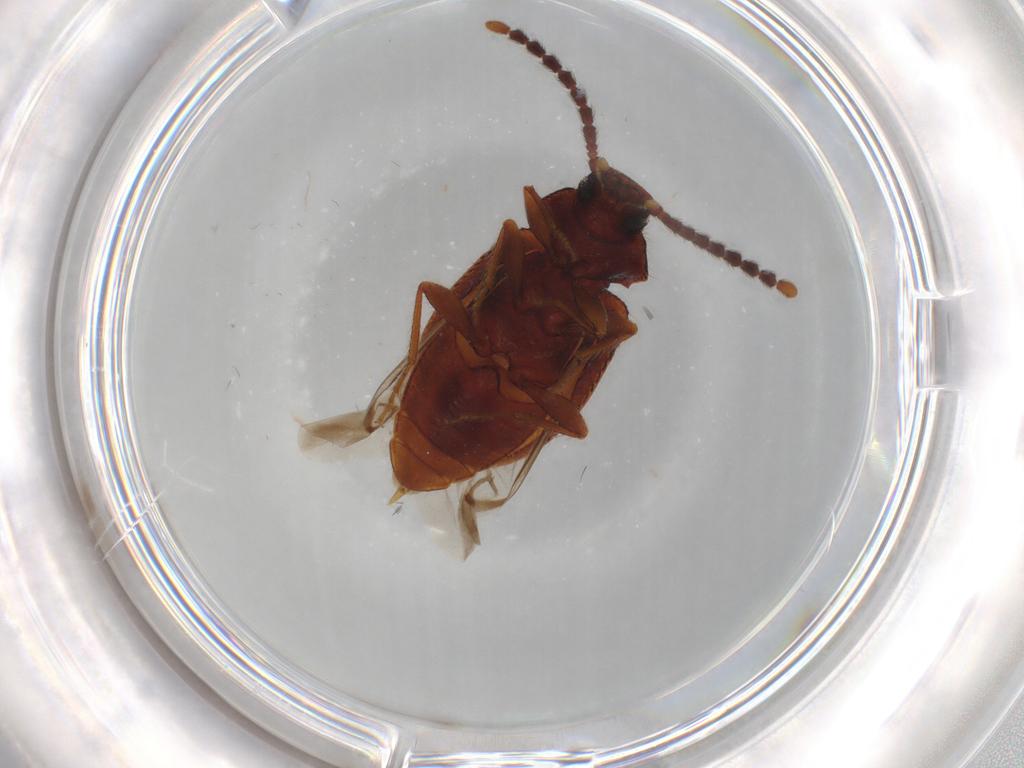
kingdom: Animalia
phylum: Arthropoda
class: Insecta
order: Coleoptera
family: Tenebrionidae
